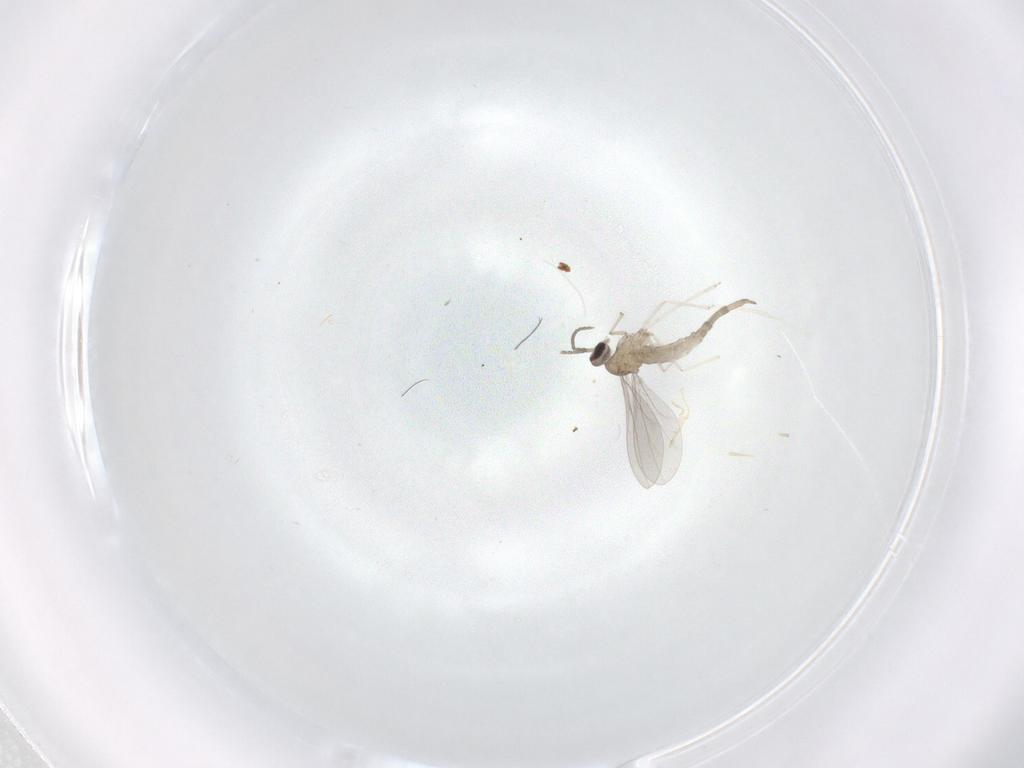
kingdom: Animalia
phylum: Arthropoda
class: Insecta
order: Diptera
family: Cecidomyiidae
